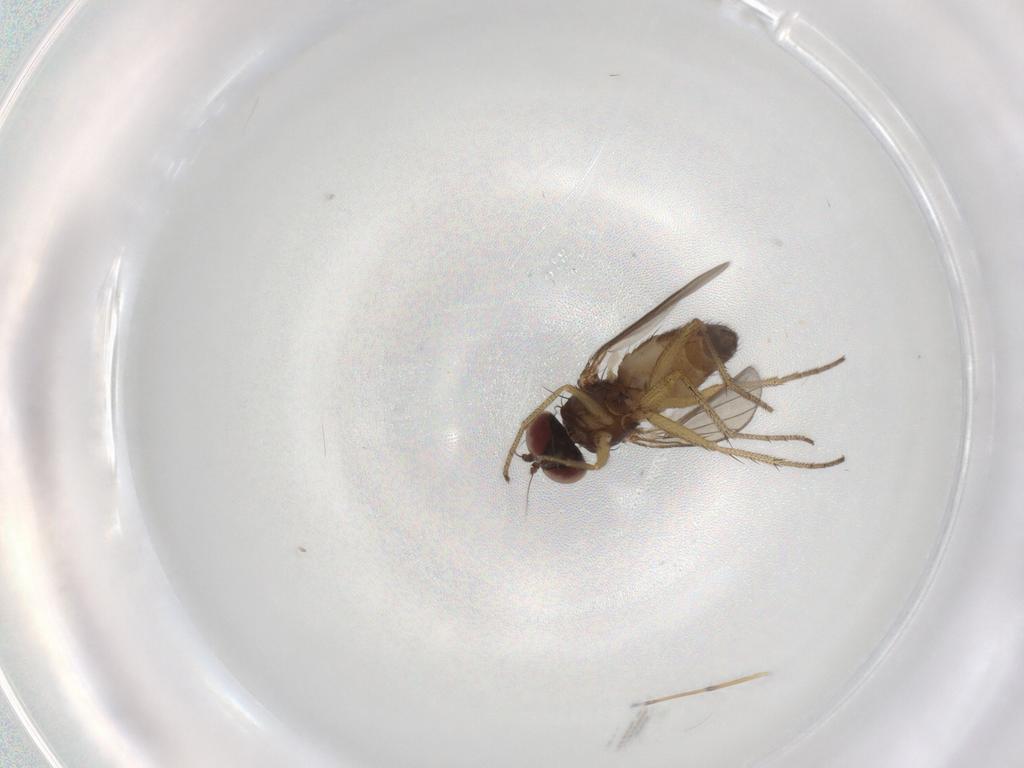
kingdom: Animalia
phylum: Arthropoda
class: Insecta
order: Diptera
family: Dolichopodidae
